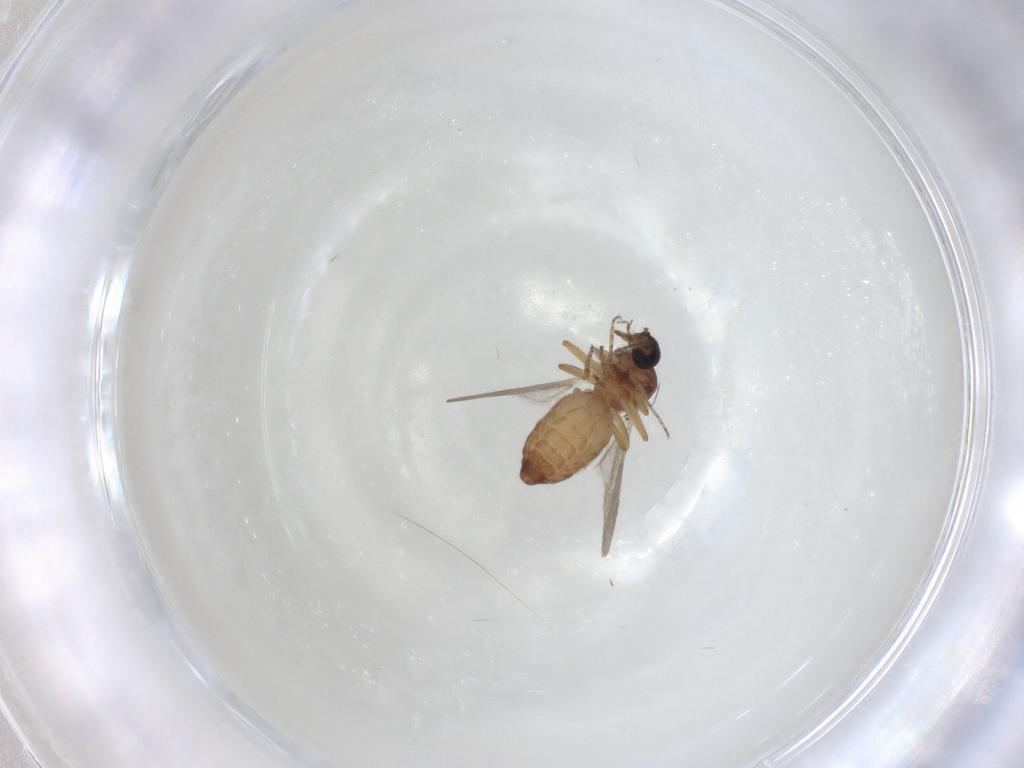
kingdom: Animalia
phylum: Arthropoda
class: Insecta
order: Diptera
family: Ceratopogonidae
